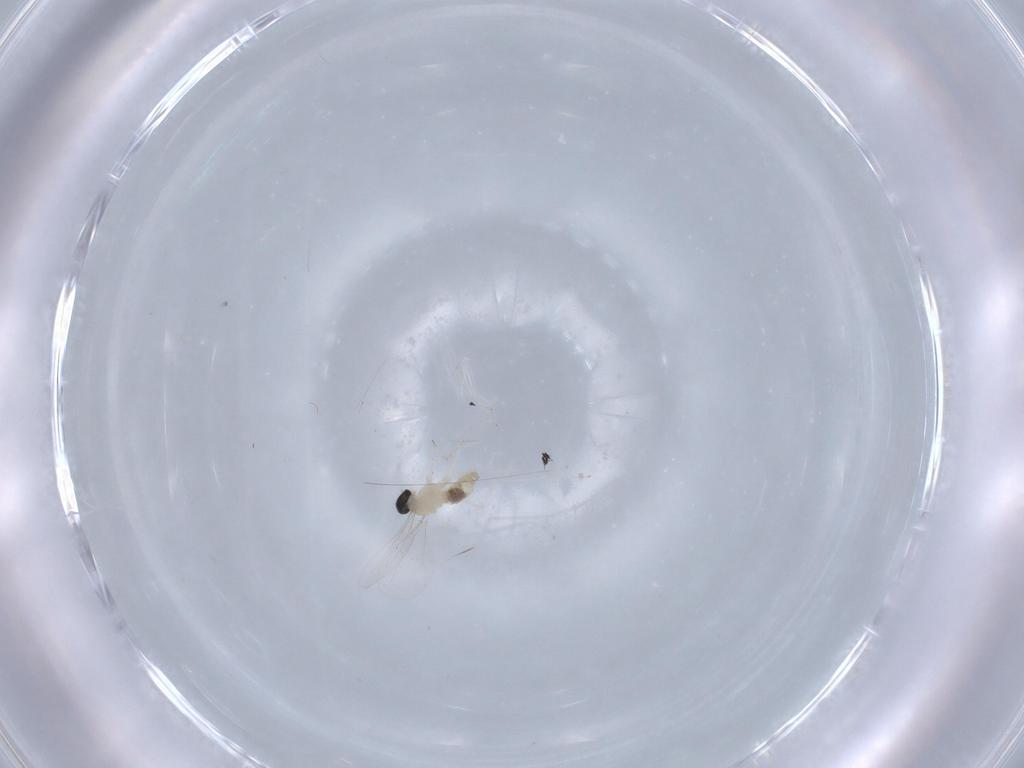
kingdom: Animalia
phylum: Arthropoda
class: Insecta
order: Diptera
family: Cecidomyiidae
